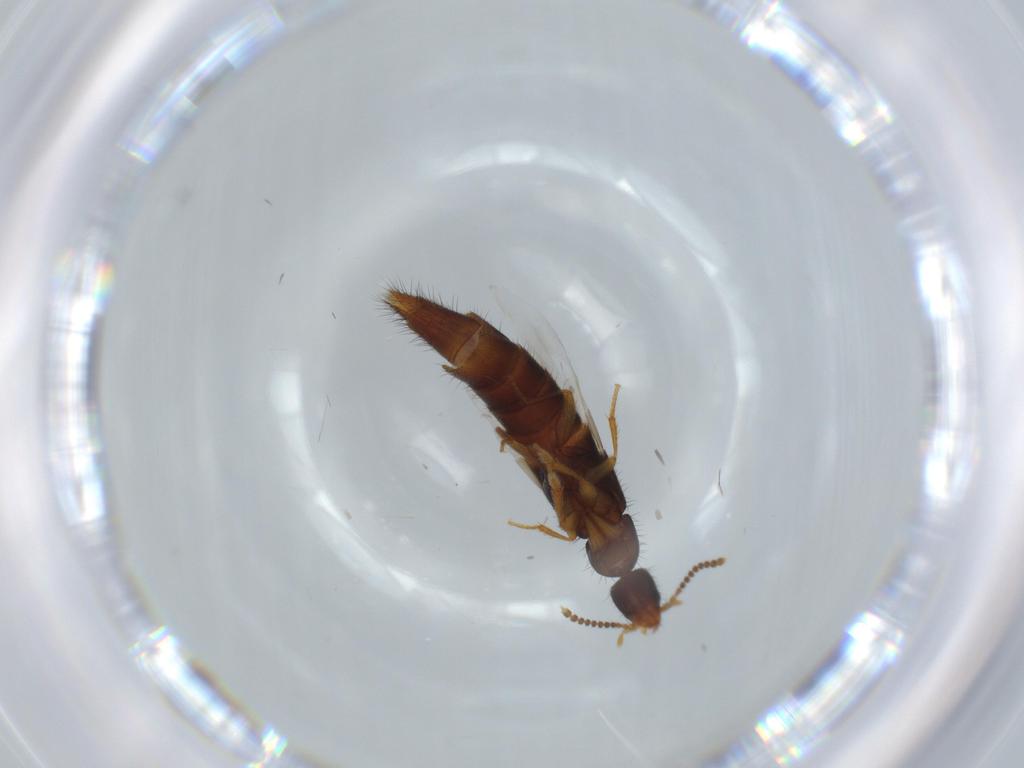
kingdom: Animalia
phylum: Arthropoda
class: Insecta
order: Coleoptera
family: Staphylinidae
